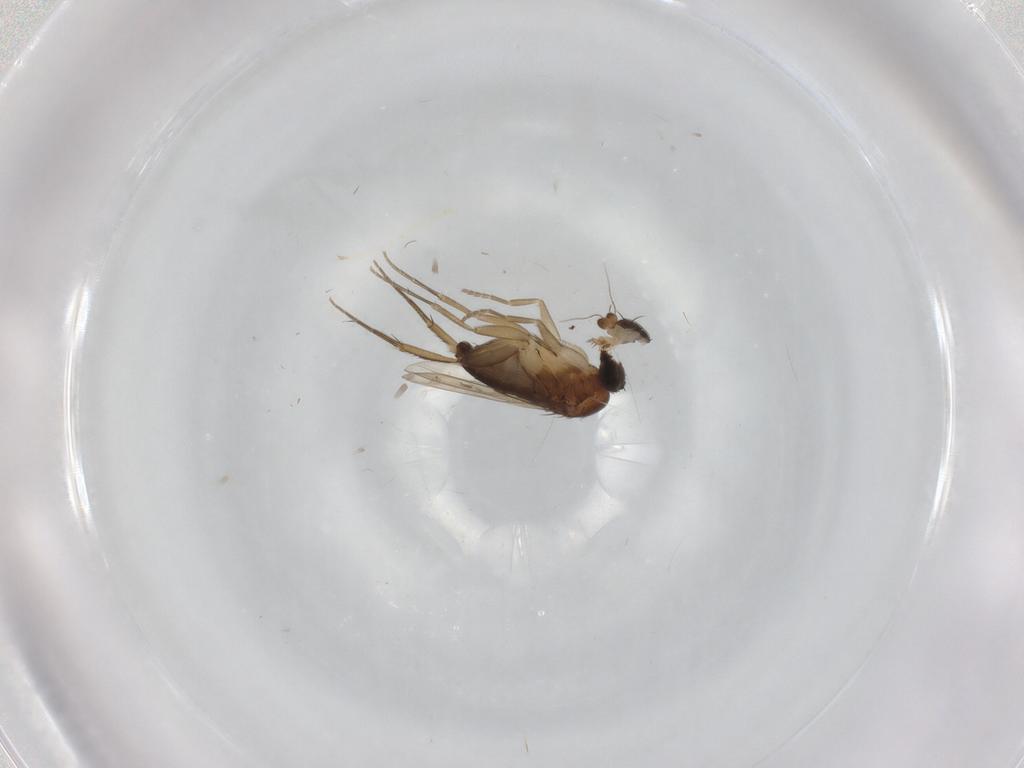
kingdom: Animalia
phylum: Arthropoda
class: Insecta
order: Diptera
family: Phoridae
